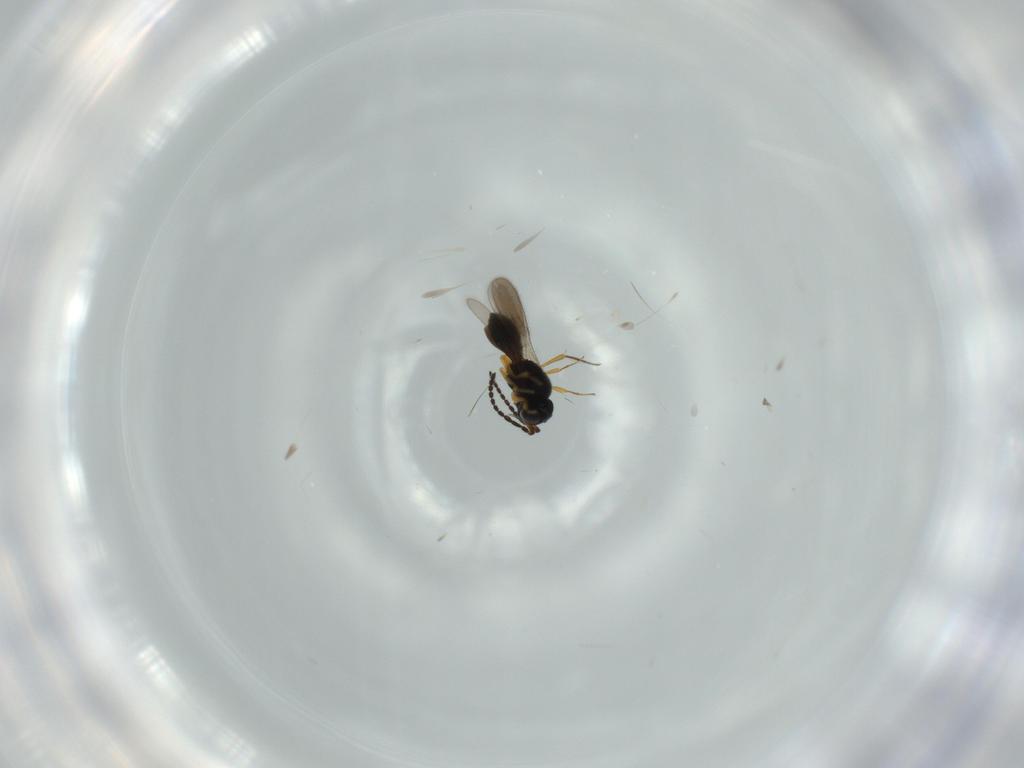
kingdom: Animalia
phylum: Arthropoda
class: Insecta
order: Hymenoptera
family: Scelionidae
